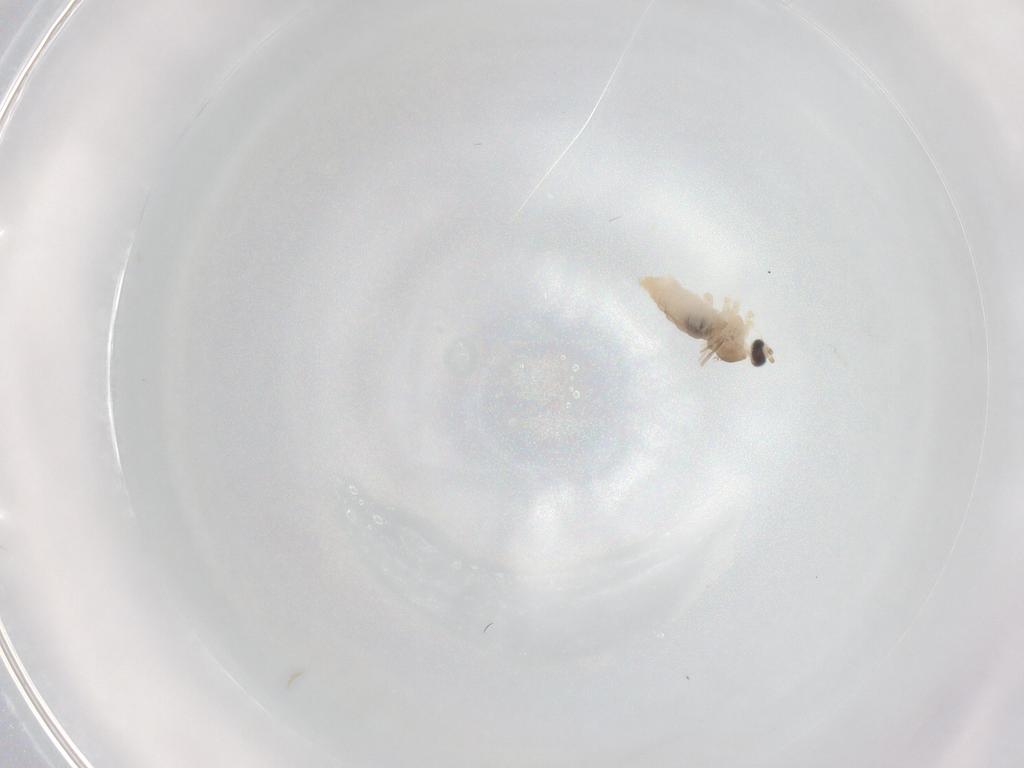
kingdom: Animalia
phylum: Arthropoda
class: Insecta
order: Diptera
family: Cecidomyiidae
